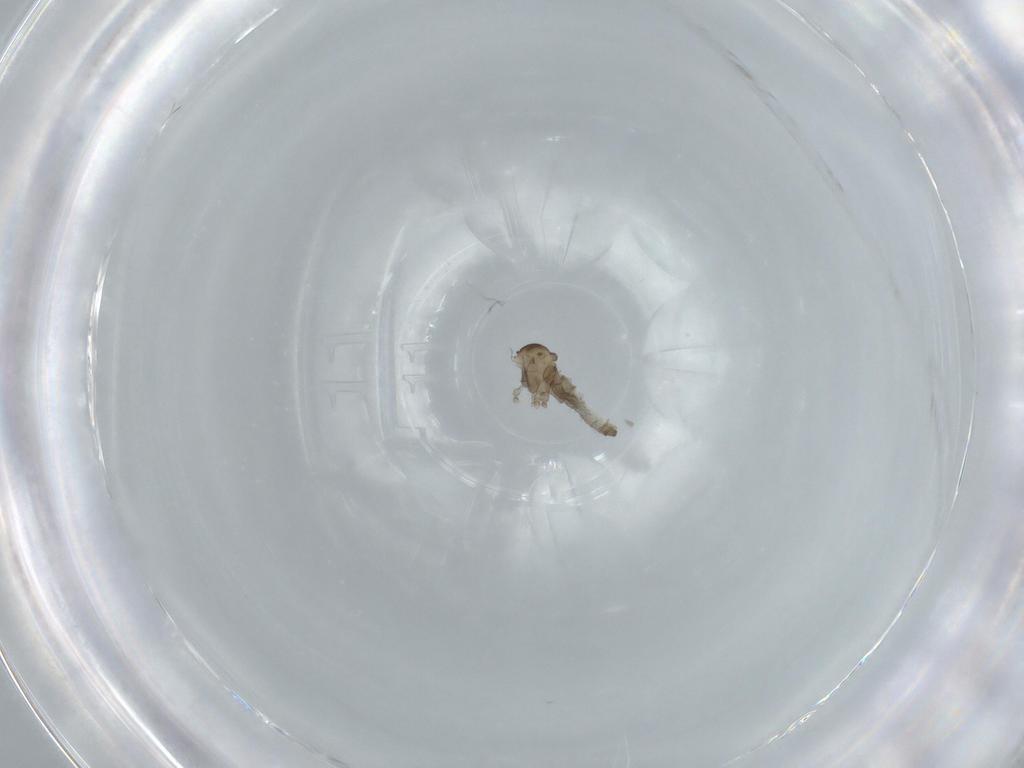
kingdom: Animalia
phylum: Arthropoda
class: Insecta
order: Diptera
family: Cecidomyiidae
